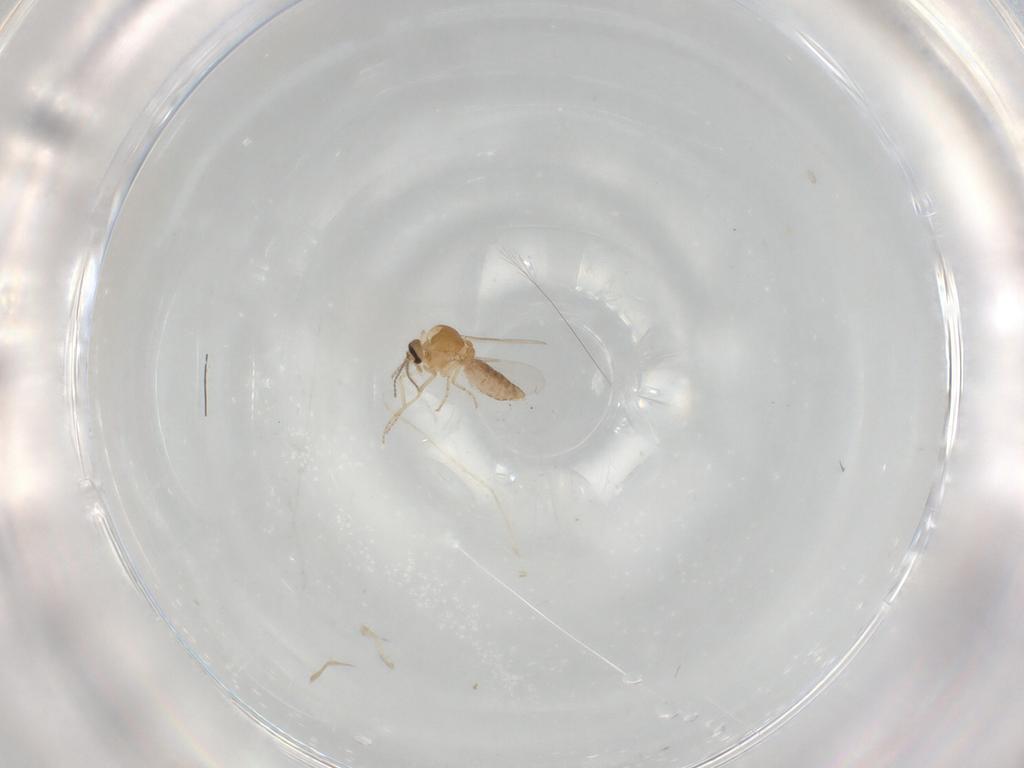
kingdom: Animalia
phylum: Arthropoda
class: Insecta
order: Diptera
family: Ceratopogonidae
